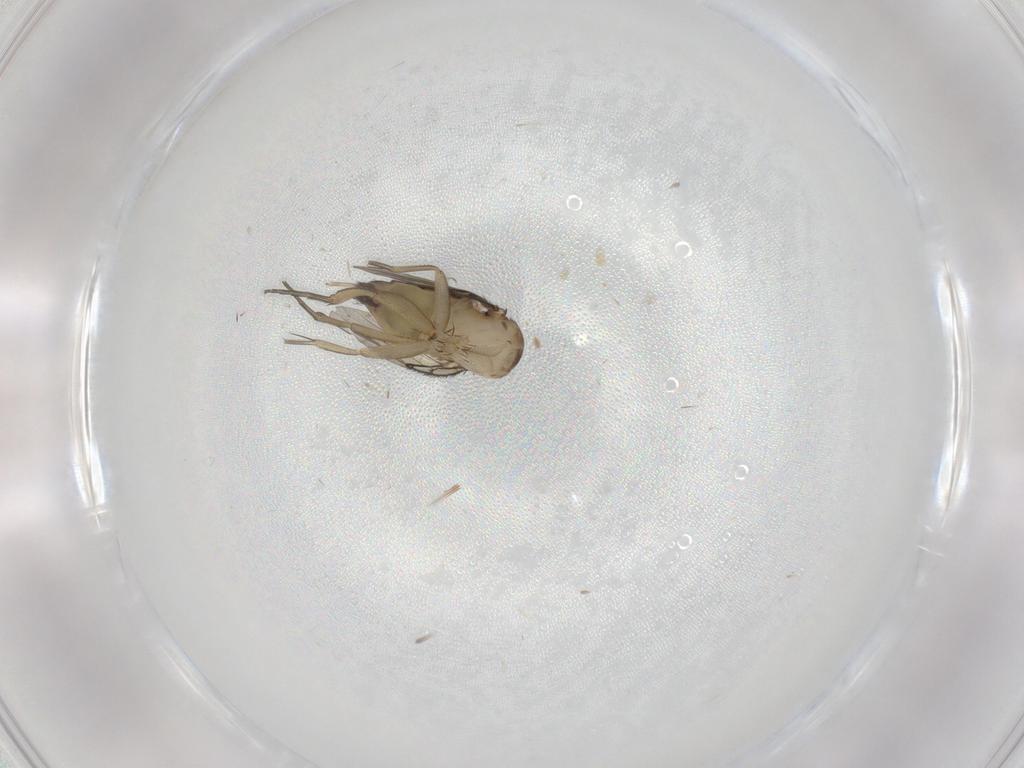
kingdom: Animalia
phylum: Arthropoda
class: Insecta
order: Diptera
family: Phoridae
